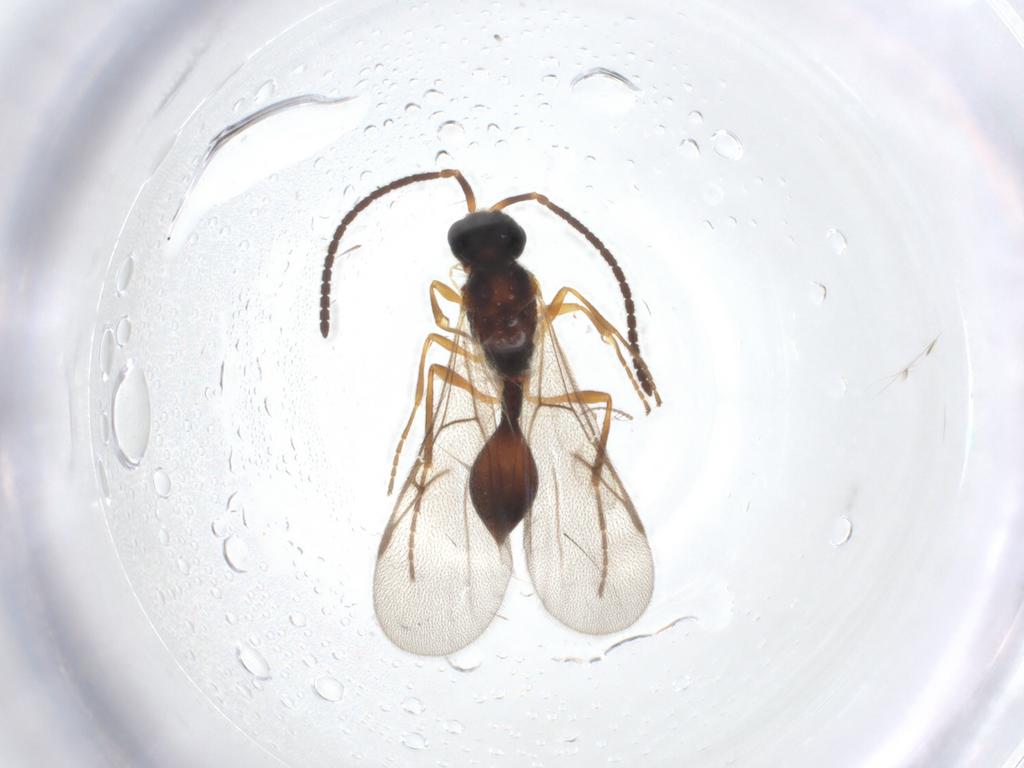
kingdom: Animalia
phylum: Arthropoda
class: Insecta
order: Hymenoptera
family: Diapriidae
